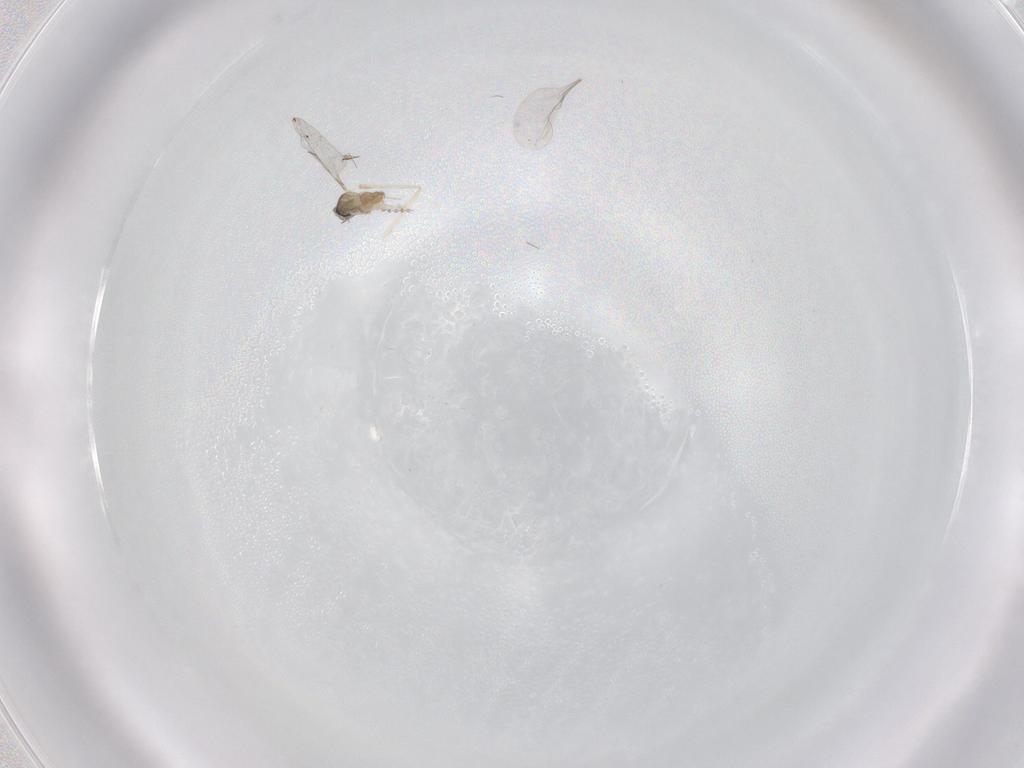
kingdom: Animalia
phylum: Arthropoda
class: Insecta
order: Diptera
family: Cecidomyiidae
